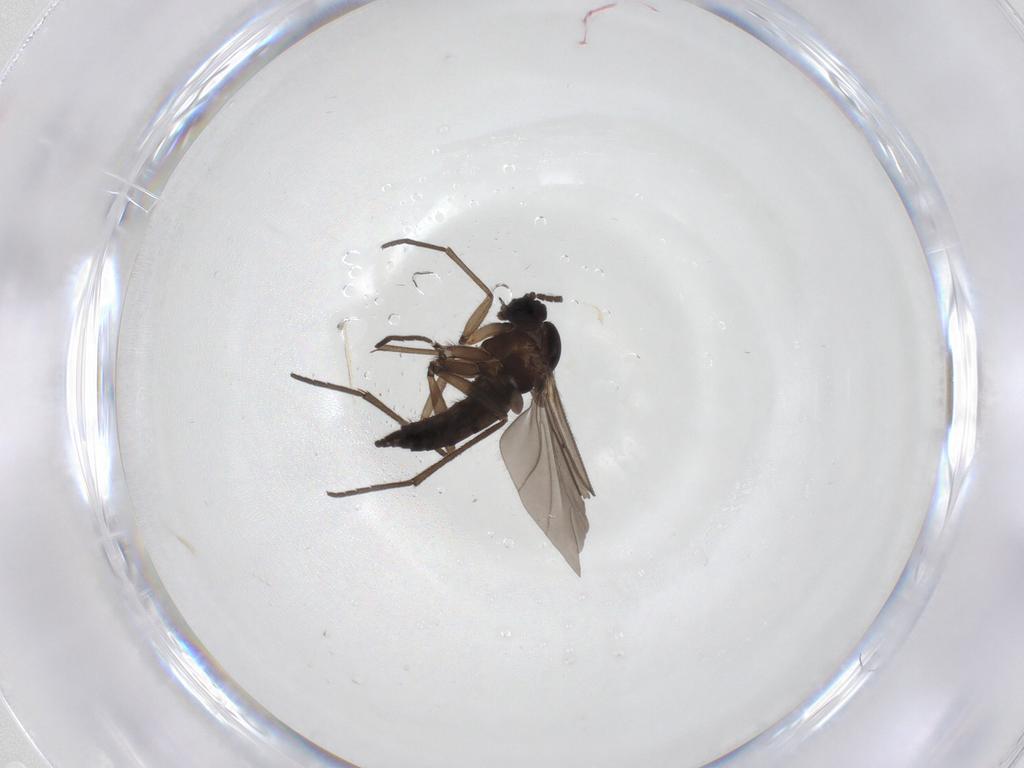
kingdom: Animalia
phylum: Arthropoda
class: Insecta
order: Diptera
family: Sciaridae
